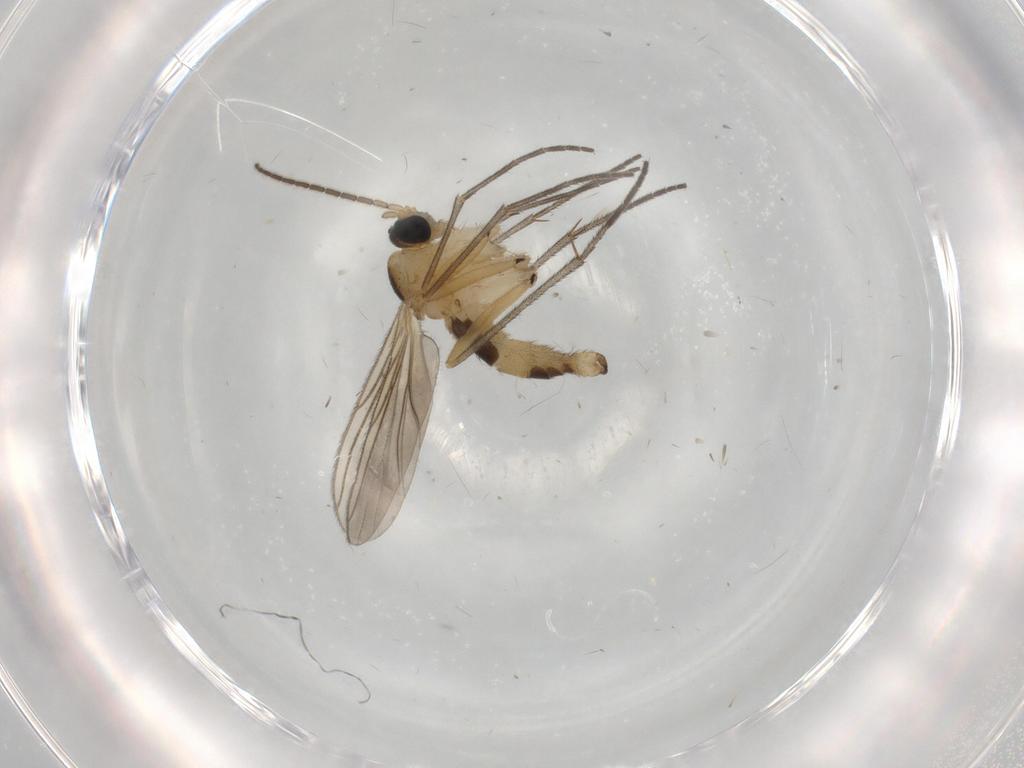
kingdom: Animalia
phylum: Arthropoda
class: Insecta
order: Diptera
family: Sciaridae
